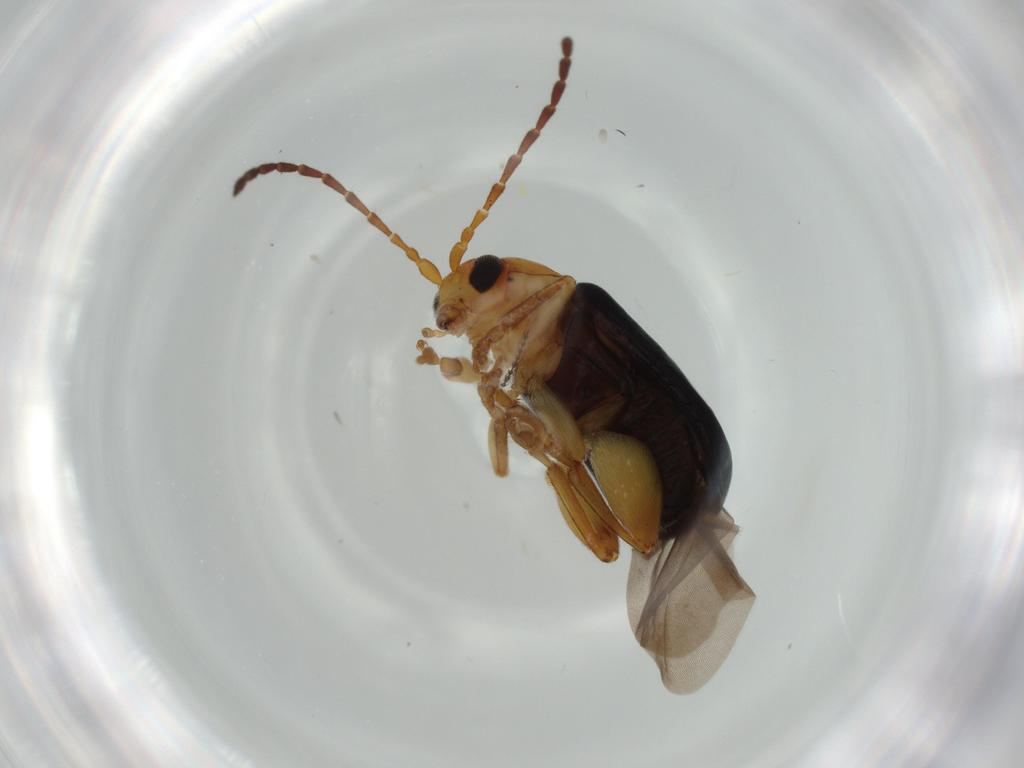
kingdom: Animalia
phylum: Arthropoda
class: Insecta
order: Coleoptera
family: Chrysomelidae
